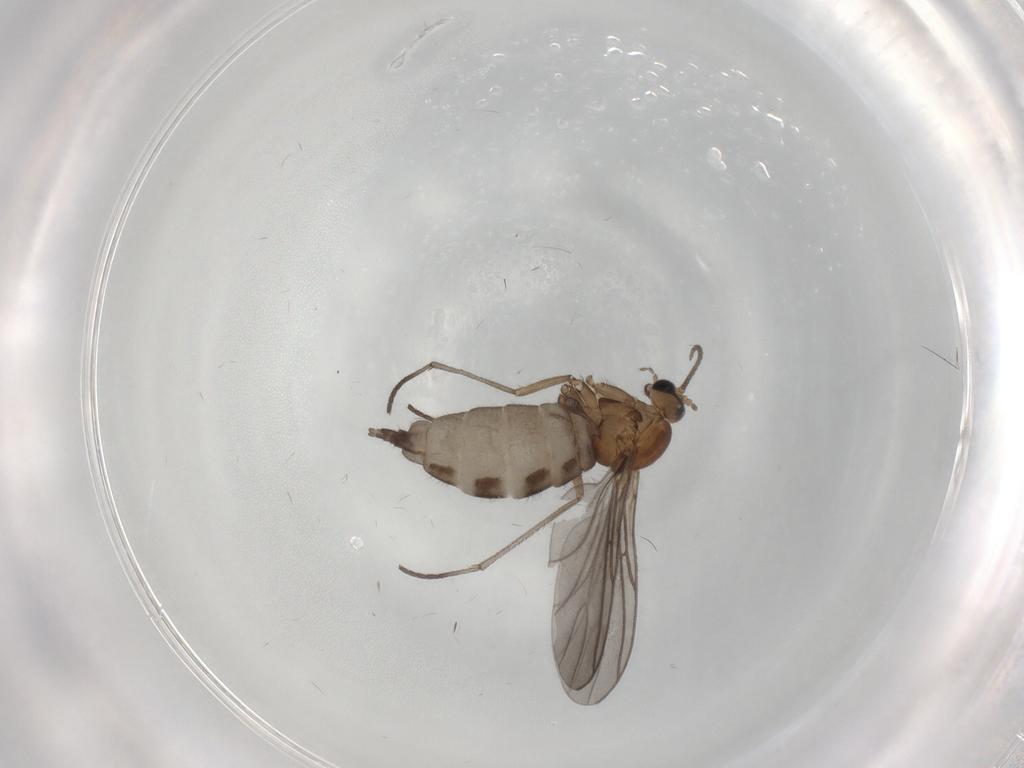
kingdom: Animalia
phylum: Arthropoda
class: Insecta
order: Diptera
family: Sciaridae
